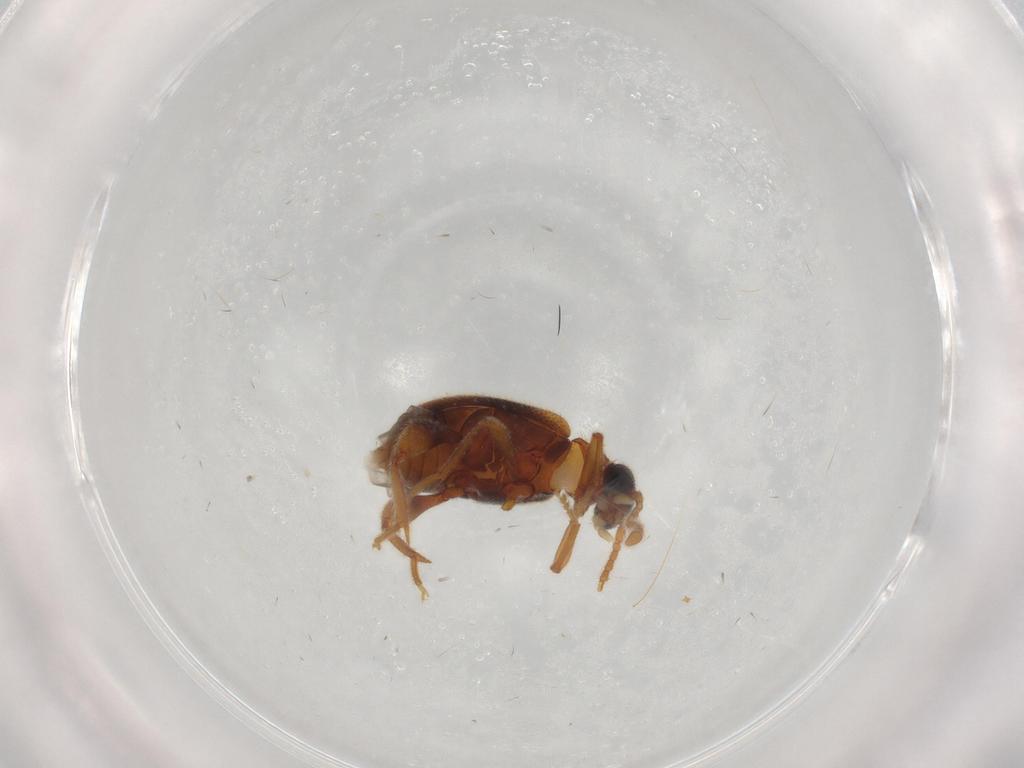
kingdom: Animalia
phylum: Arthropoda
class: Insecta
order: Coleoptera
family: Aderidae
